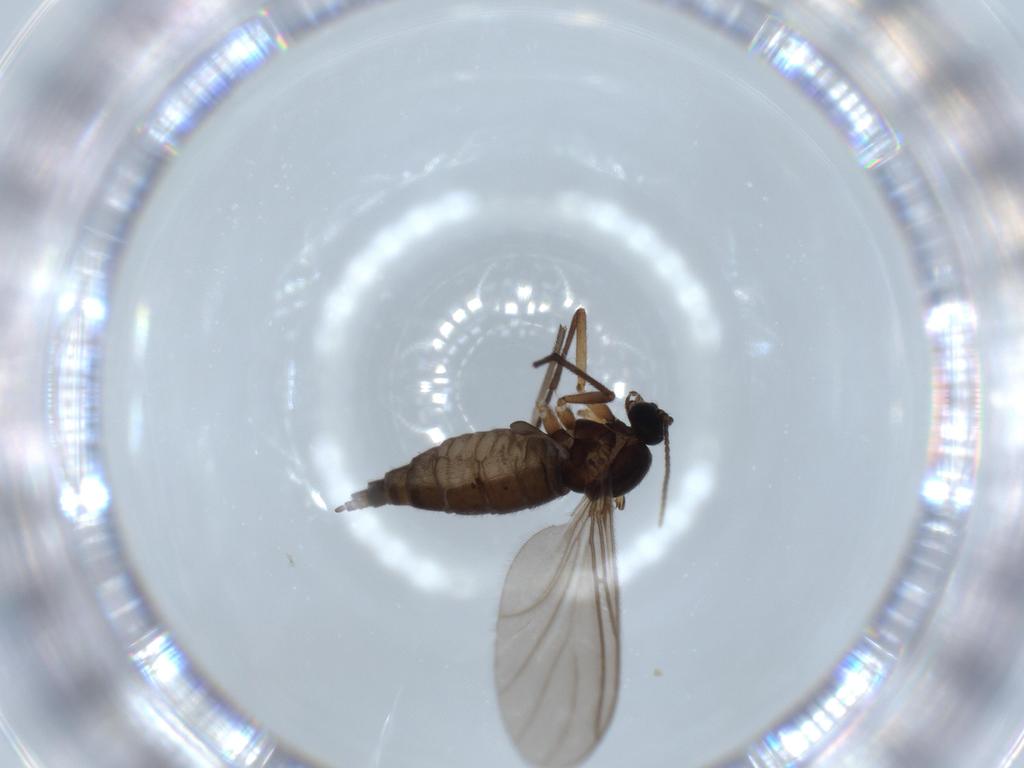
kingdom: Animalia
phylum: Arthropoda
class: Insecta
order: Diptera
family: Sciaridae
